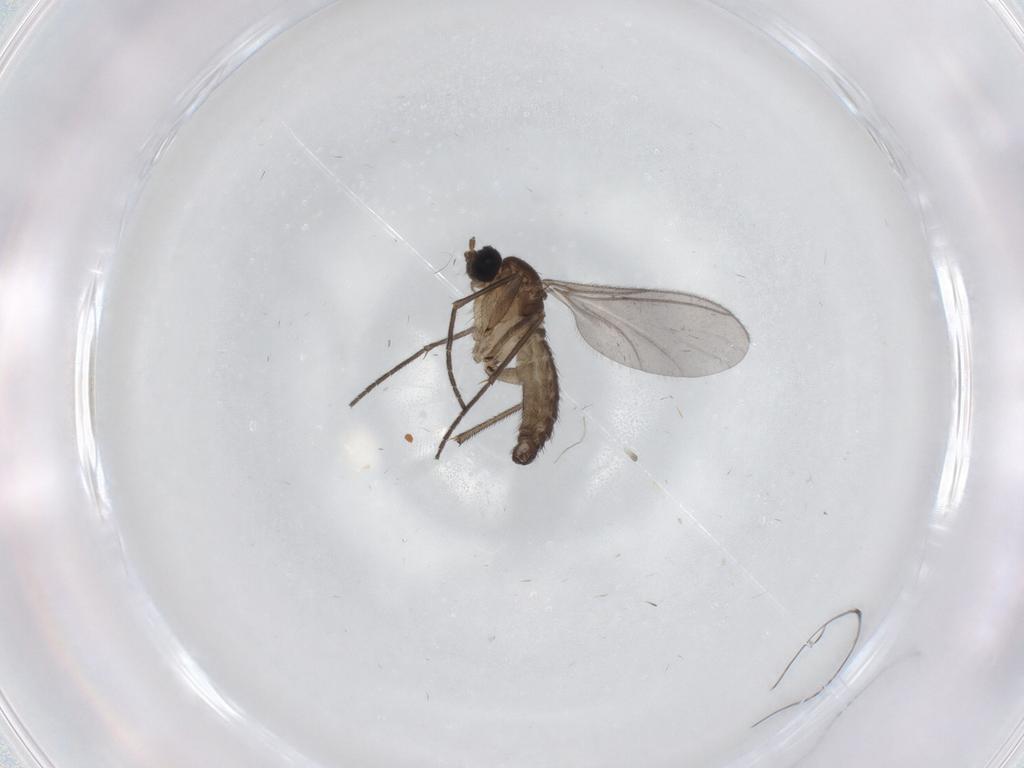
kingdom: Animalia
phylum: Arthropoda
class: Insecta
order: Diptera
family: Sciaridae
